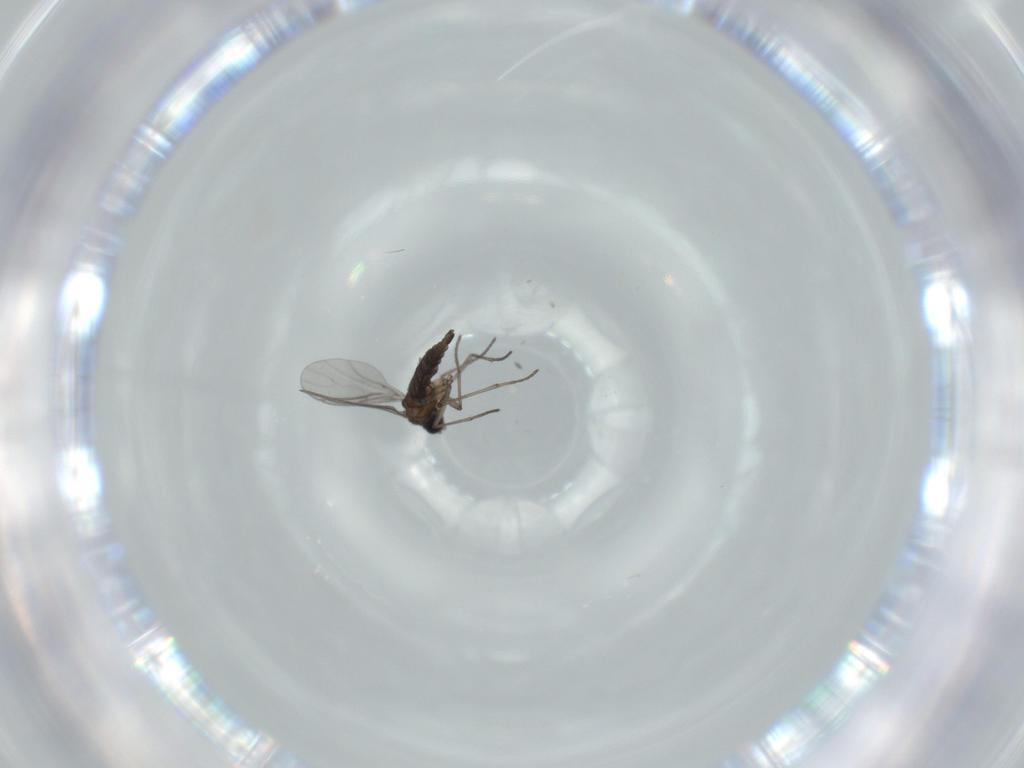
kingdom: Animalia
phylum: Arthropoda
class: Insecta
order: Diptera
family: Sciaridae
